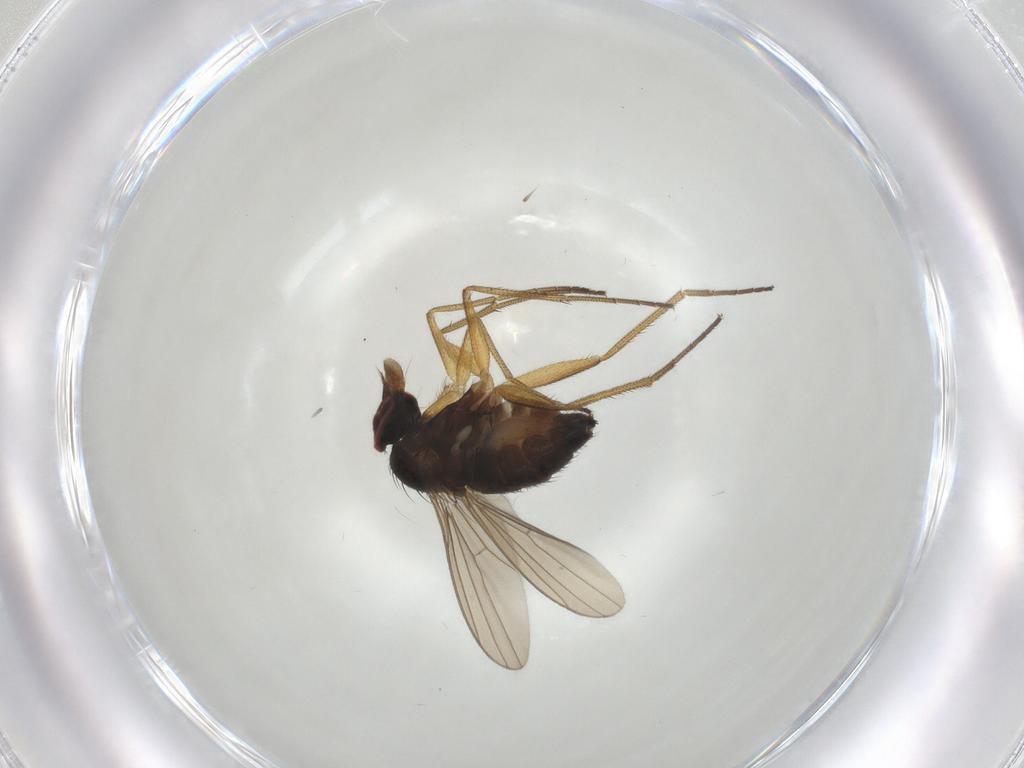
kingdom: Animalia
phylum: Arthropoda
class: Insecta
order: Diptera
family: Dolichopodidae
